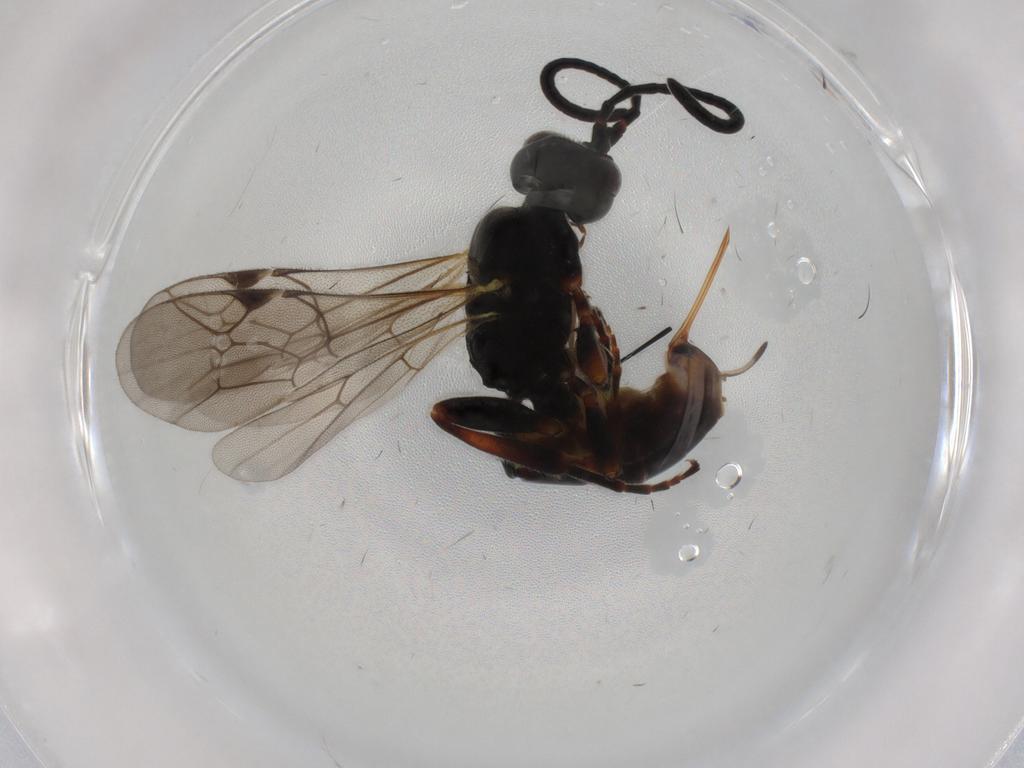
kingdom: Animalia
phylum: Arthropoda
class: Insecta
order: Hymenoptera
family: Ichneumonidae
